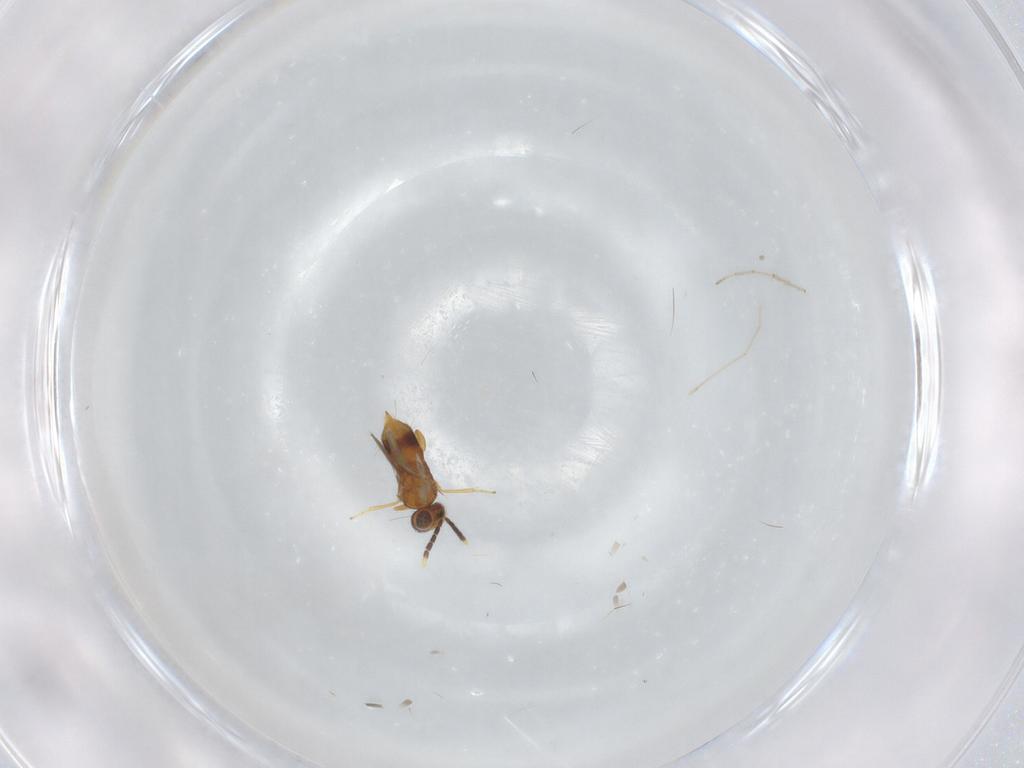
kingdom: Animalia
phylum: Arthropoda
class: Insecta
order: Hymenoptera
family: Aphelinidae
